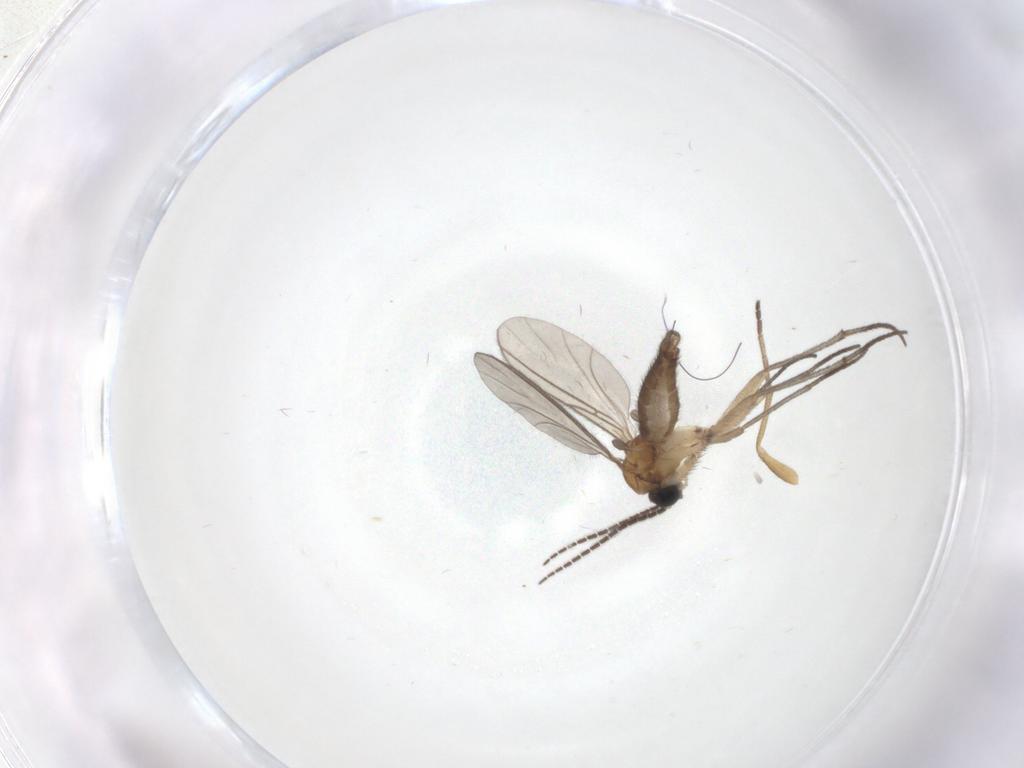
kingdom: Animalia
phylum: Arthropoda
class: Insecta
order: Diptera
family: Sciaridae
